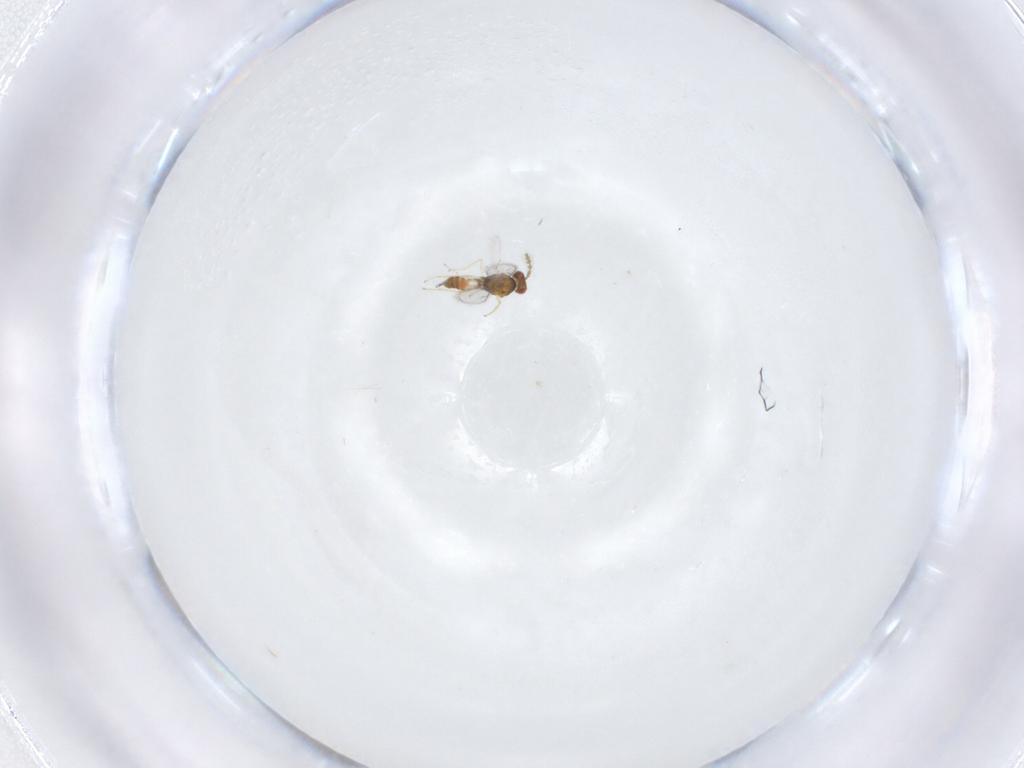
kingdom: Animalia
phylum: Arthropoda
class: Insecta
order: Hymenoptera
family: Eulophidae
